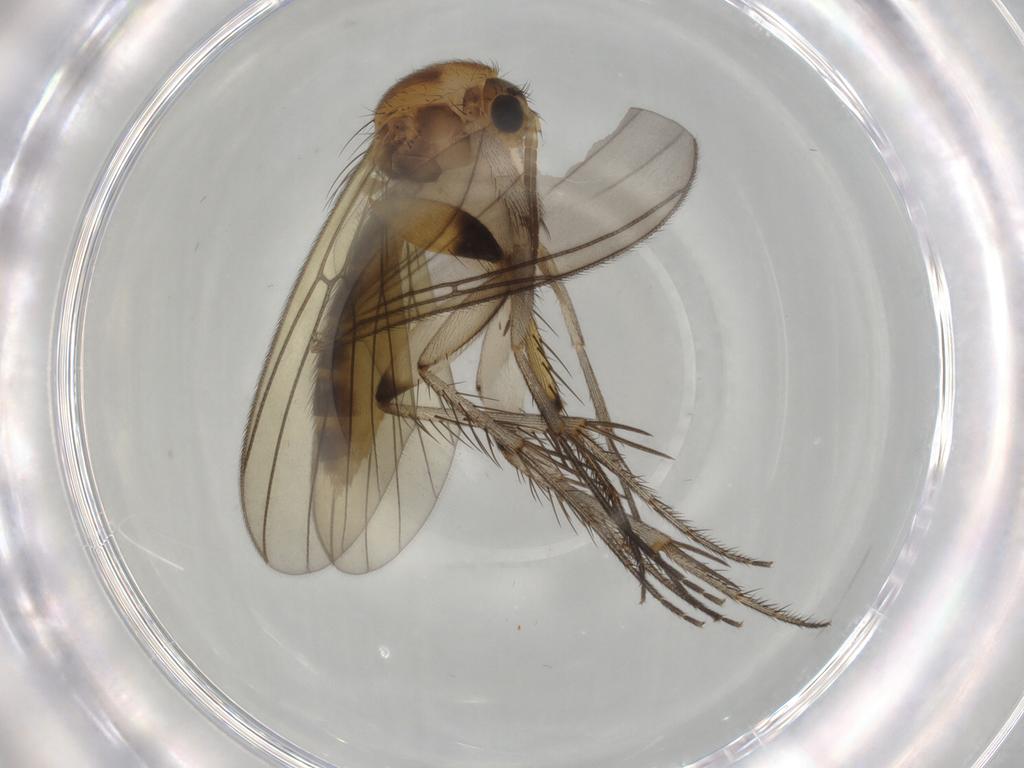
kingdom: Animalia
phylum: Arthropoda
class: Insecta
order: Diptera
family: Mycetophilidae
